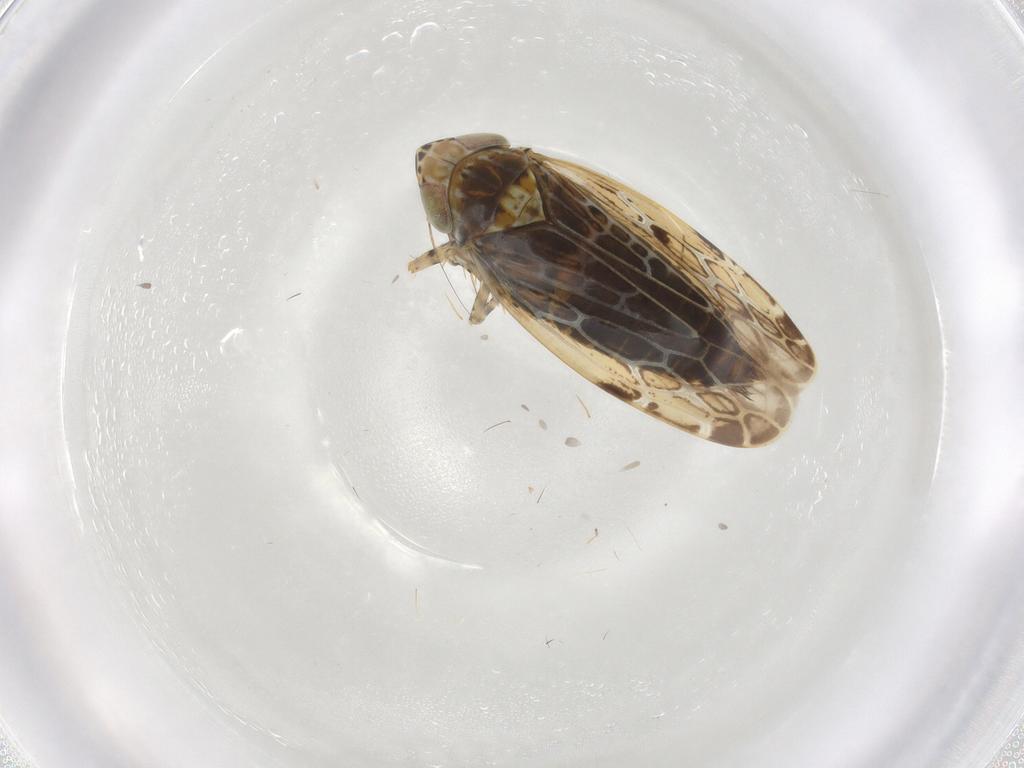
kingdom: Animalia
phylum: Arthropoda
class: Insecta
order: Hemiptera
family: Cicadellidae
